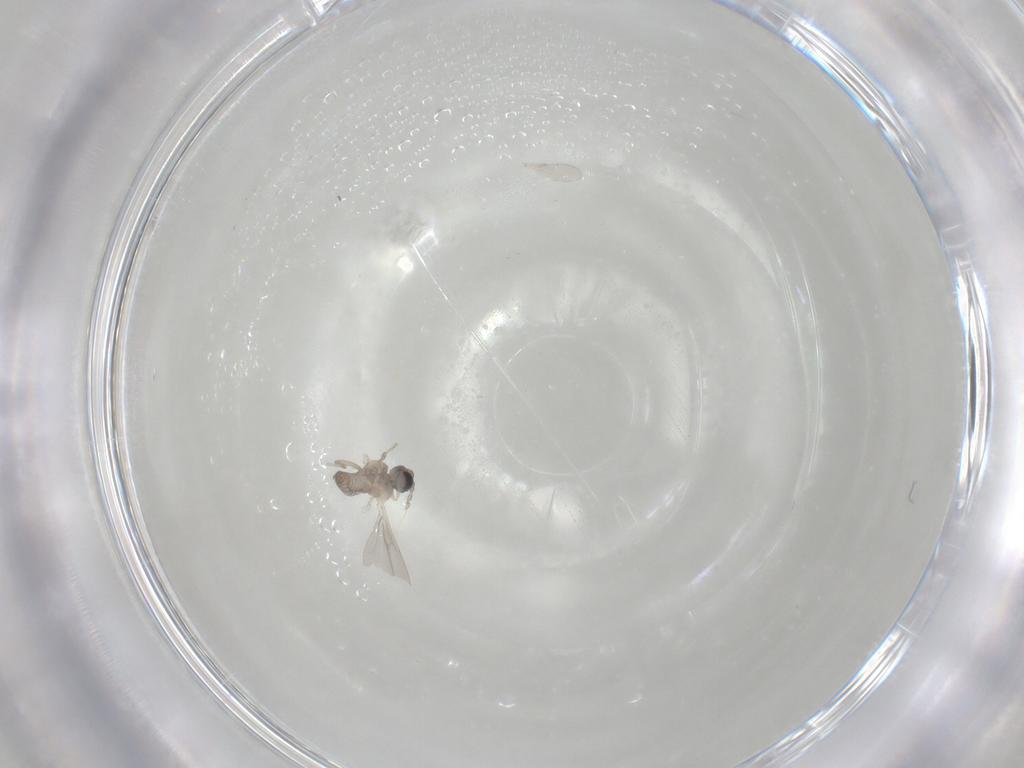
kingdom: Animalia
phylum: Arthropoda
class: Insecta
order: Diptera
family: Cecidomyiidae
